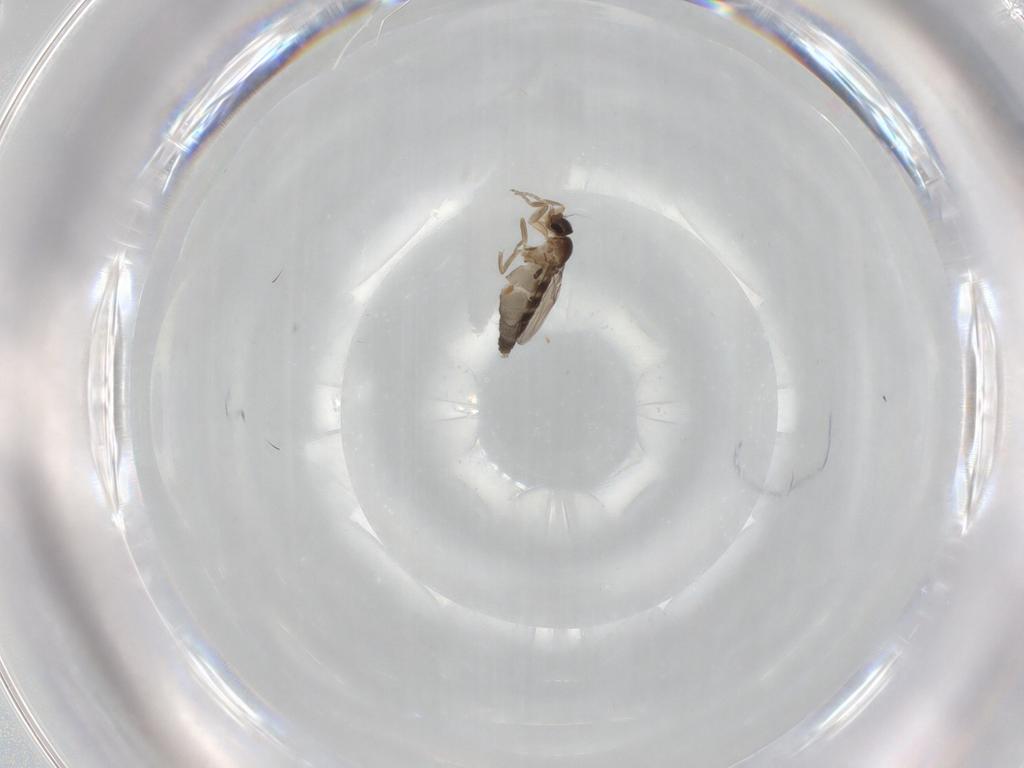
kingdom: Animalia
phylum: Arthropoda
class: Insecta
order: Diptera
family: Phoridae
